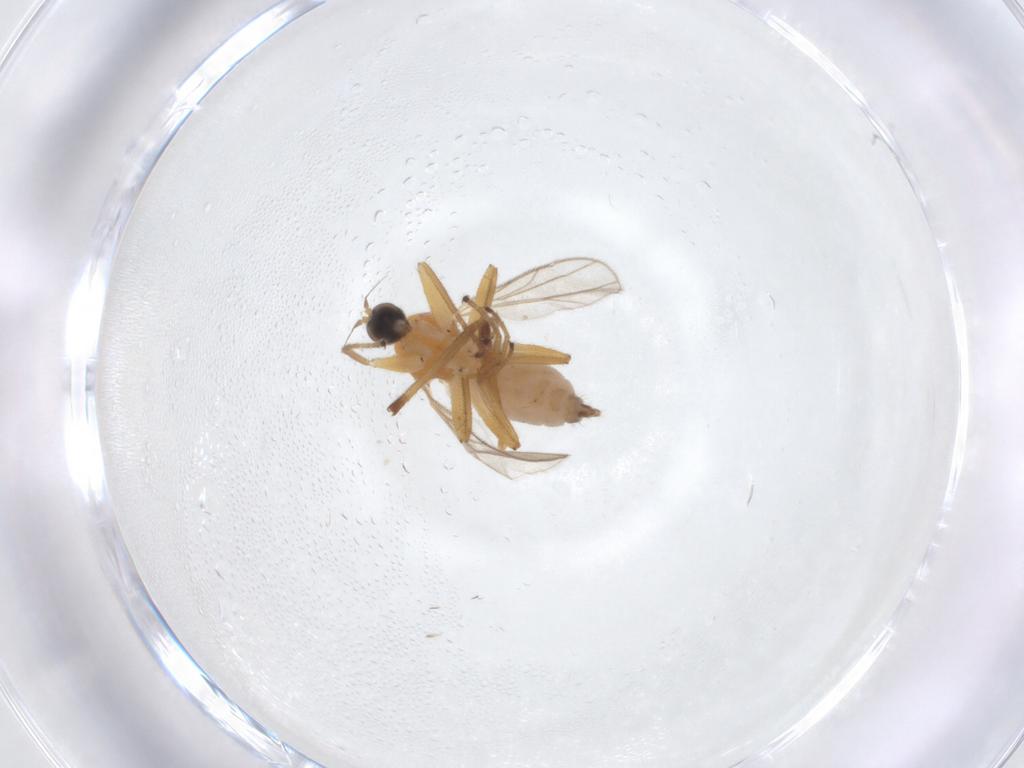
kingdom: Animalia
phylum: Arthropoda
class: Insecta
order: Diptera
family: Hybotidae
